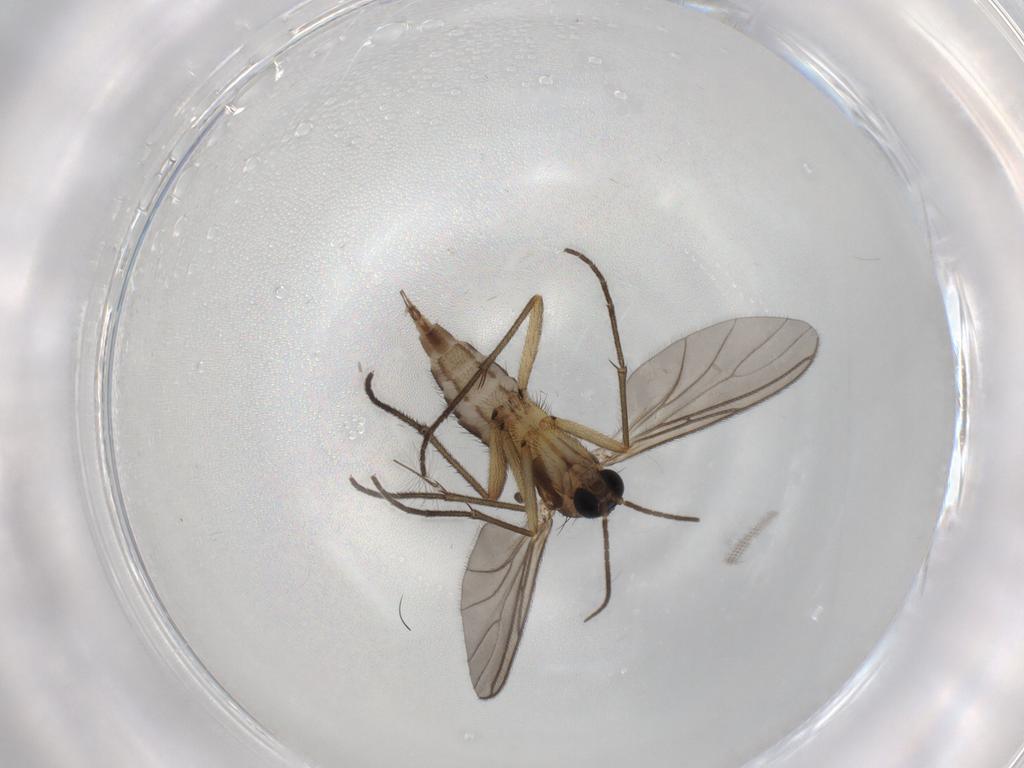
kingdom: Animalia
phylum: Arthropoda
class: Insecta
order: Diptera
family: Sciaridae
